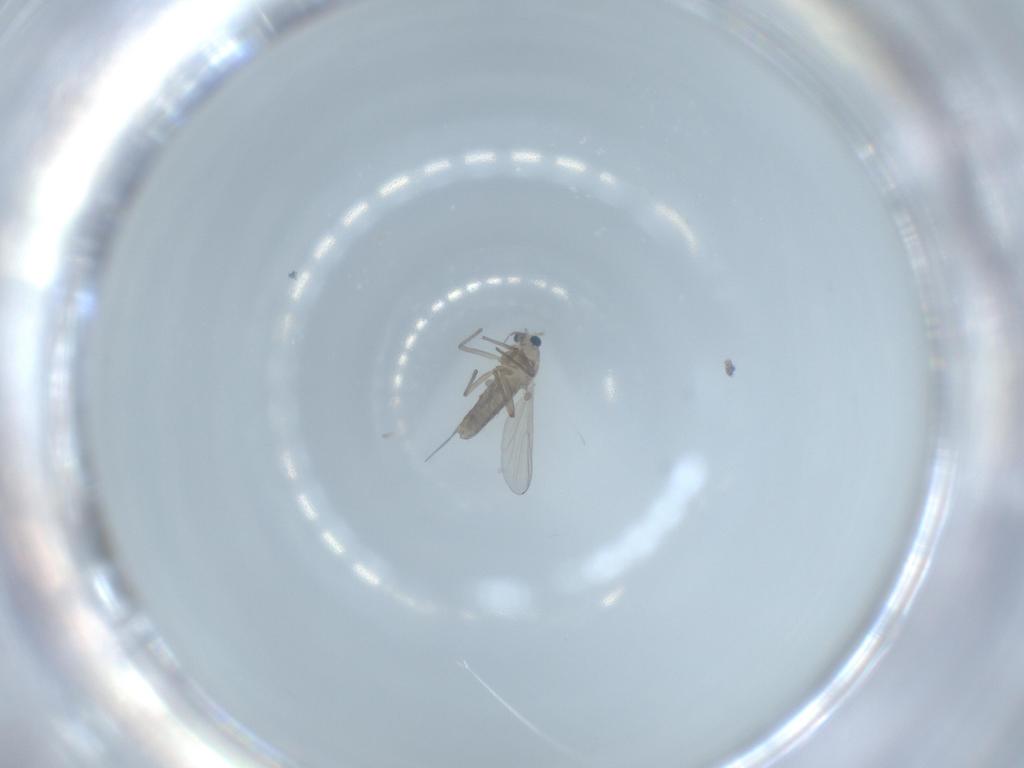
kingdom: Animalia
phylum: Arthropoda
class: Insecta
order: Diptera
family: Chironomidae
